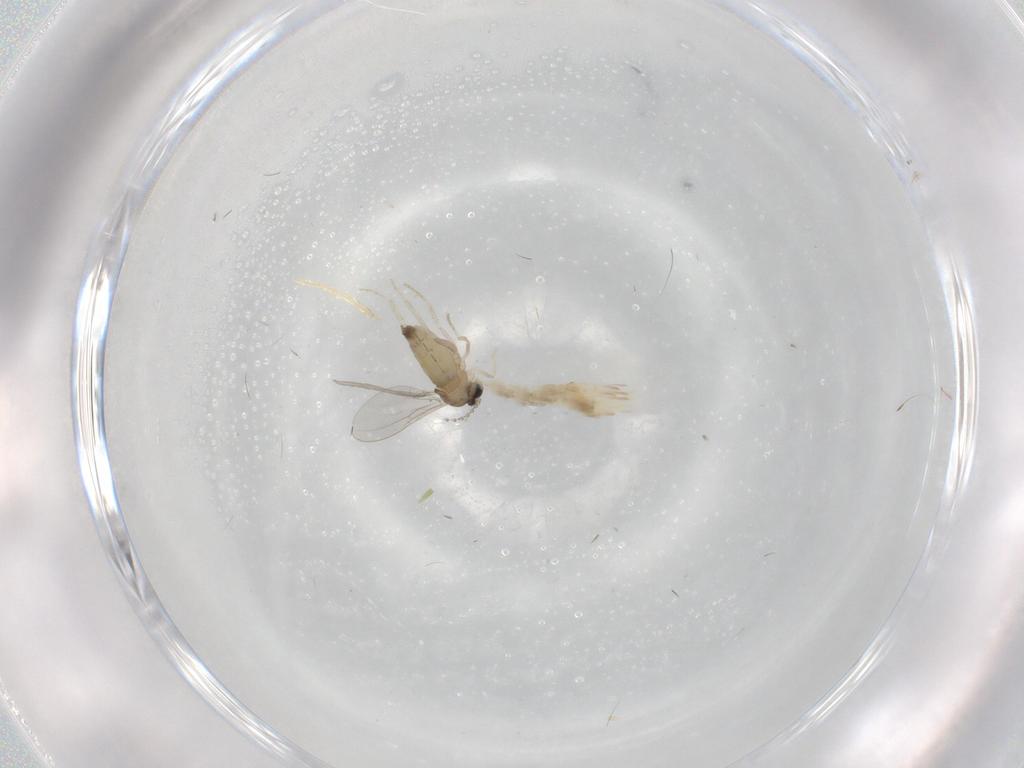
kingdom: Animalia
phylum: Arthropoda
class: Insecta
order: Diptera
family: Cecidomyiidae
